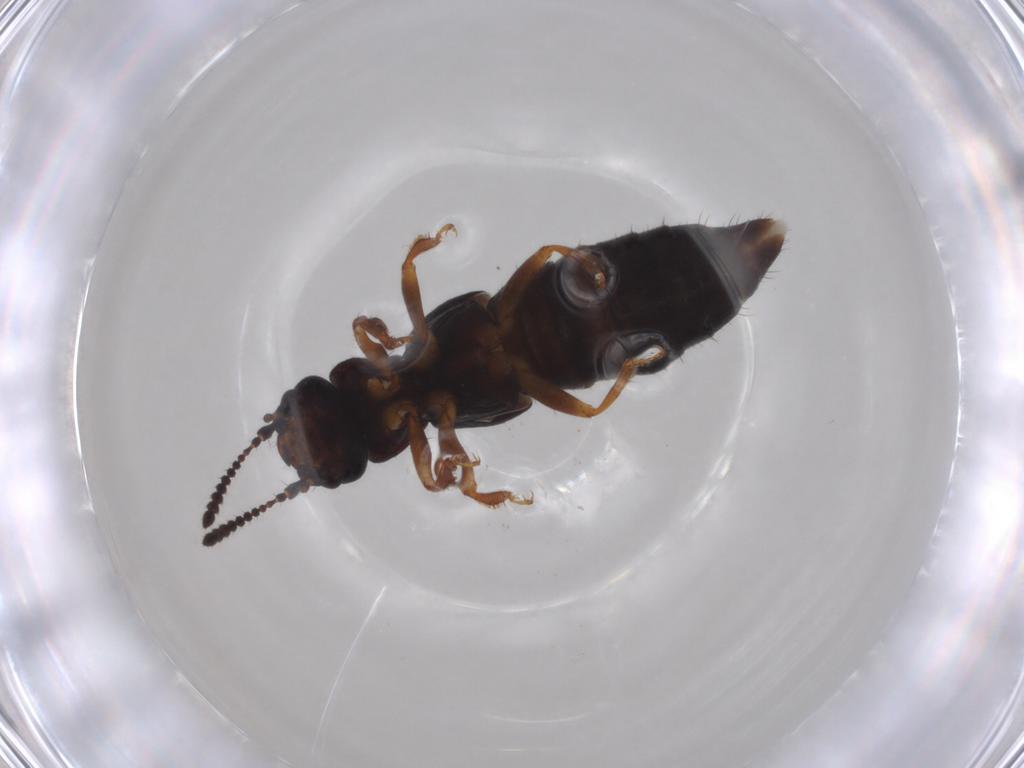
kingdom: Animalia
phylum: Arthropoda
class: Insecta
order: Coleoptera
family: Staphylinidae
